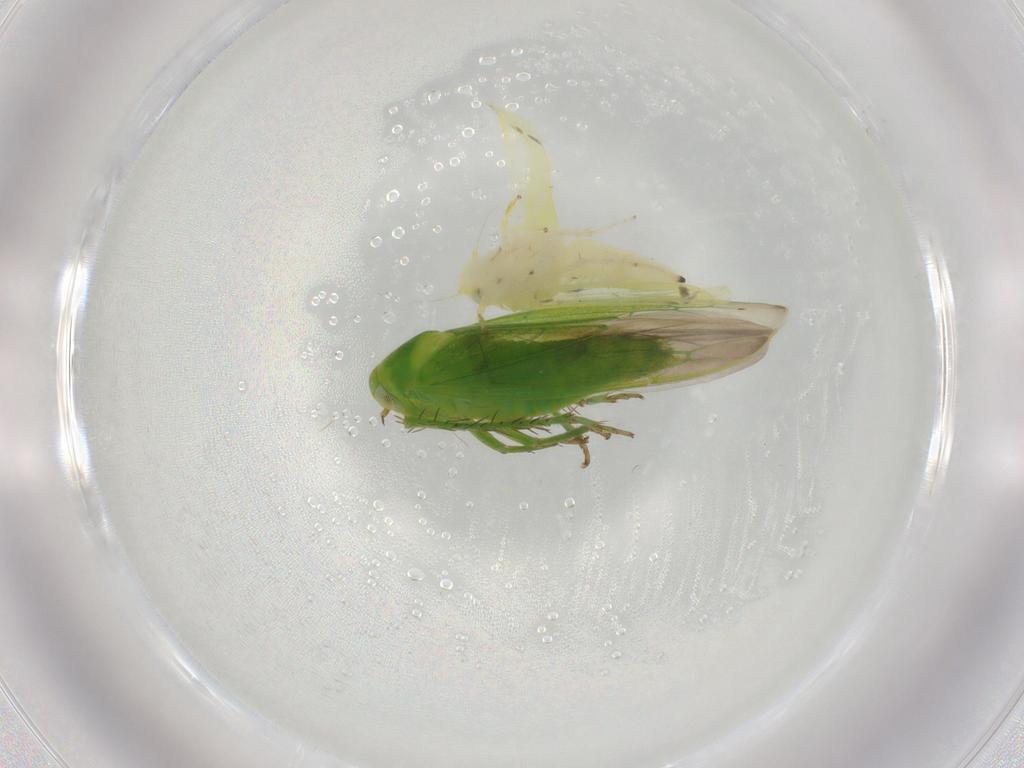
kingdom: Animalia
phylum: Arthropoda
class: Insecta
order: Hemiptera
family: Cicadellidae
